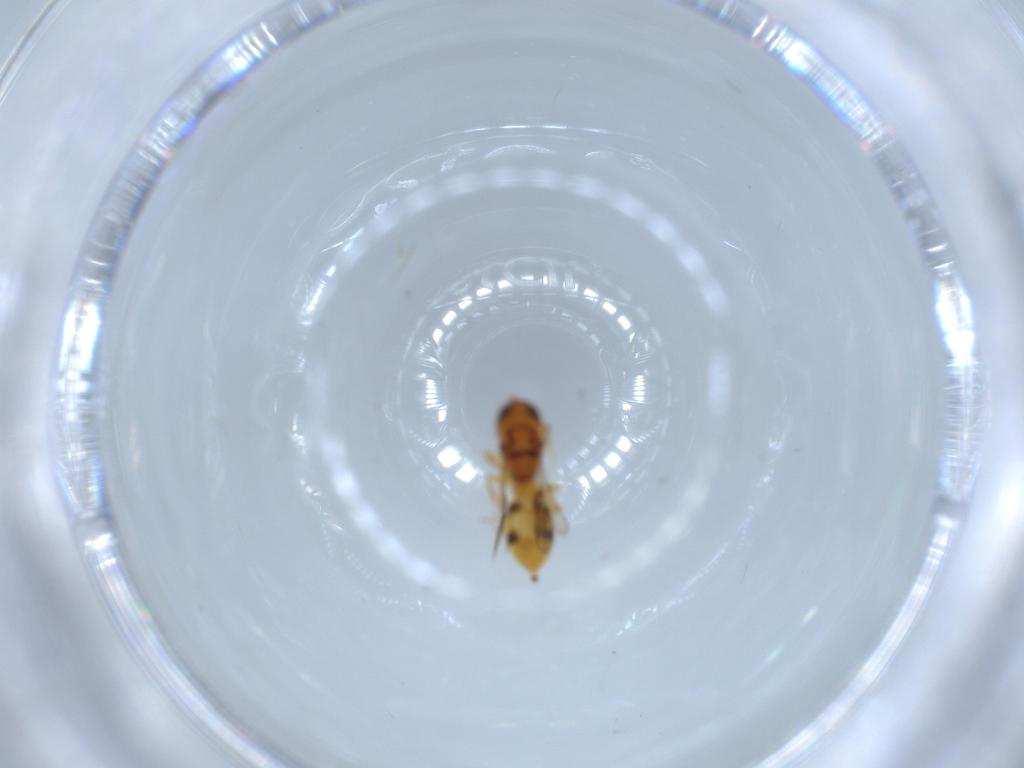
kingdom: Animalia
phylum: Arthropoda
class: Insecta
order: Hymenoptera
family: Scelionidae
